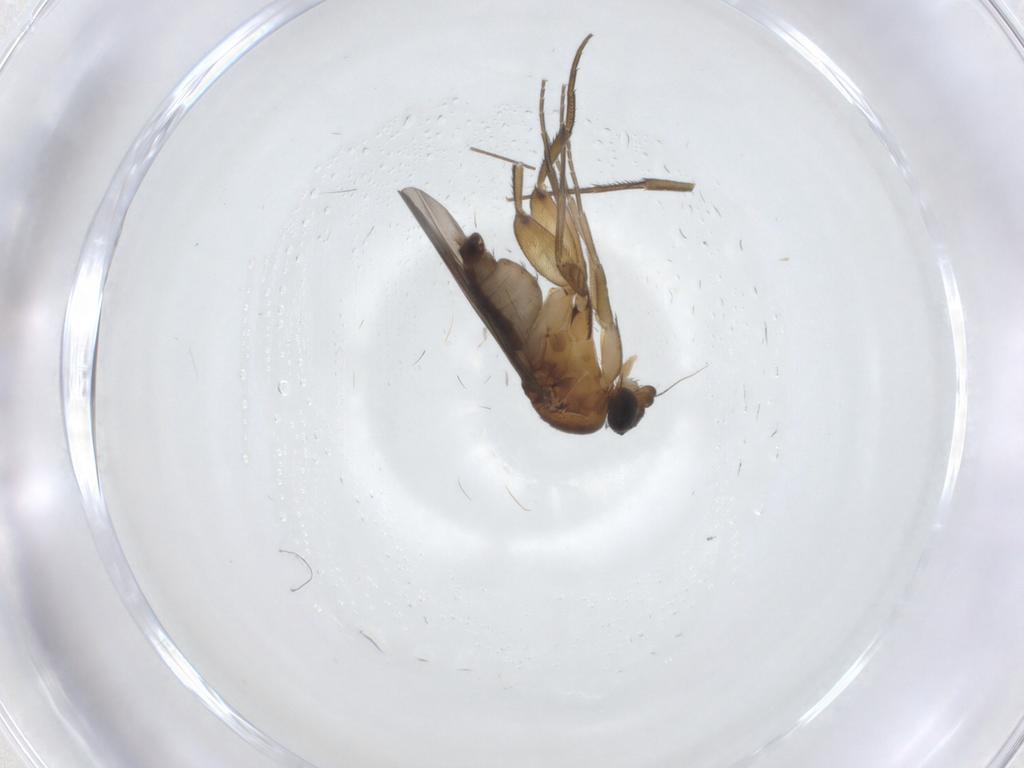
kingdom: Animalia
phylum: Arthropoda
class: Insecta
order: Diptera
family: Phoridae
